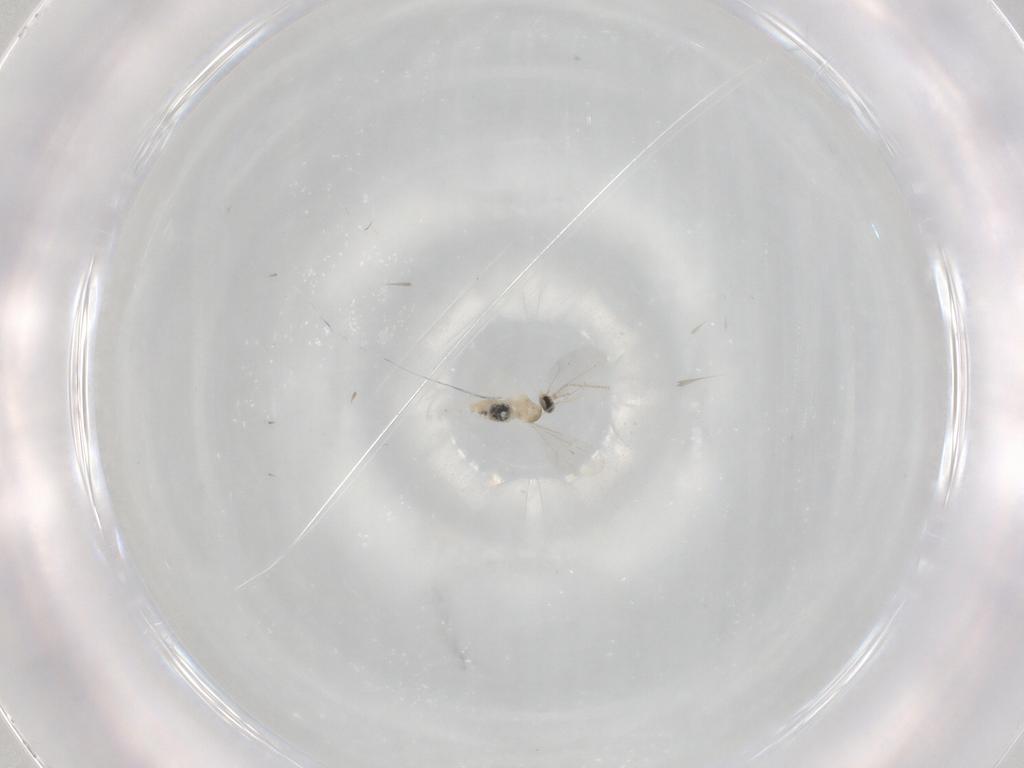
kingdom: Animalia
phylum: Arthropoda
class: Insecta
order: Diptera
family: Cecidomyiidae
